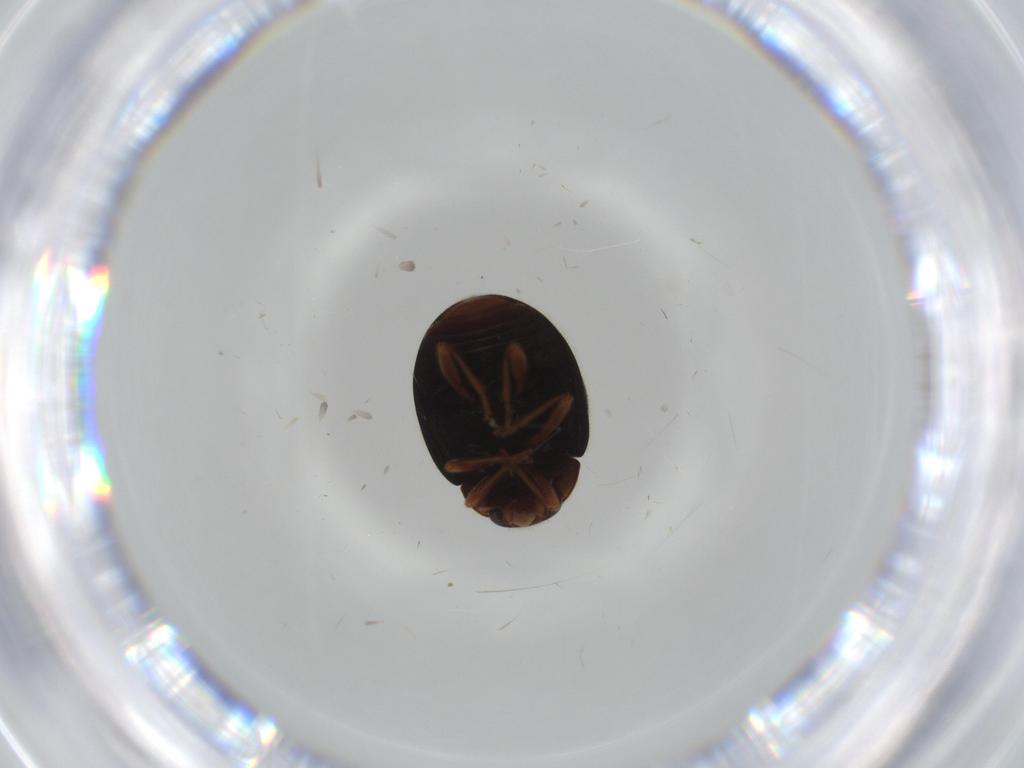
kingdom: Animalia
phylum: Arthropoda
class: Insecta
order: Coleoptera
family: Coccinellidae
